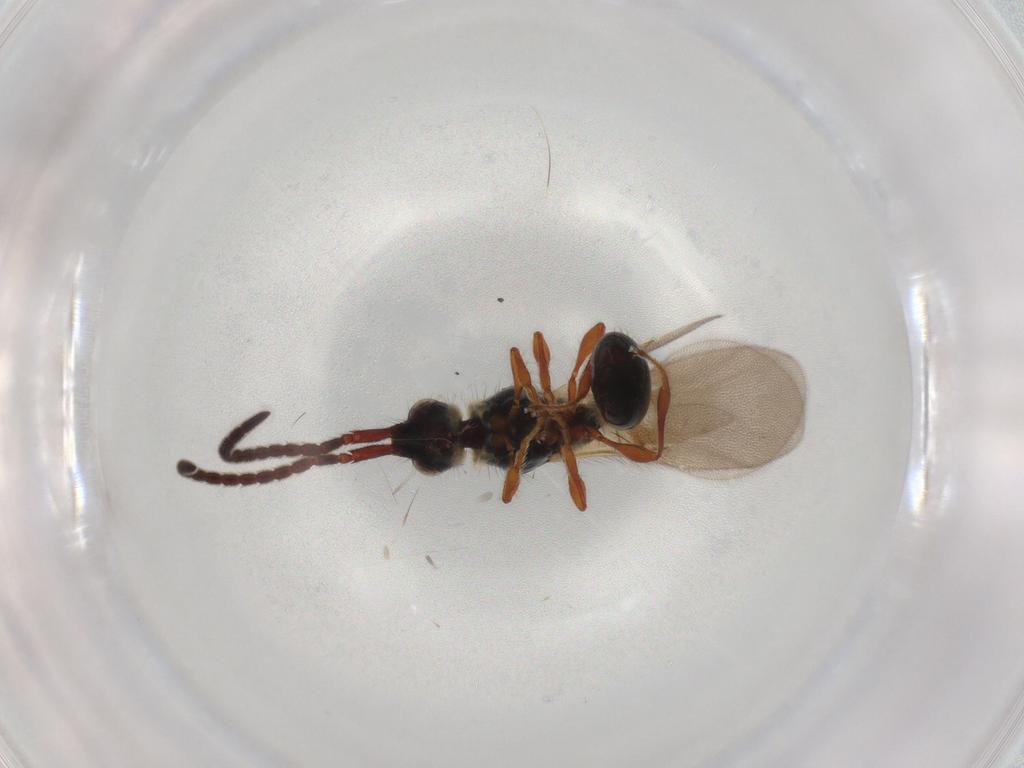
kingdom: Animalia
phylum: Arthropoda
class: Insecta
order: Hymenoptera
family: Diapriidae
